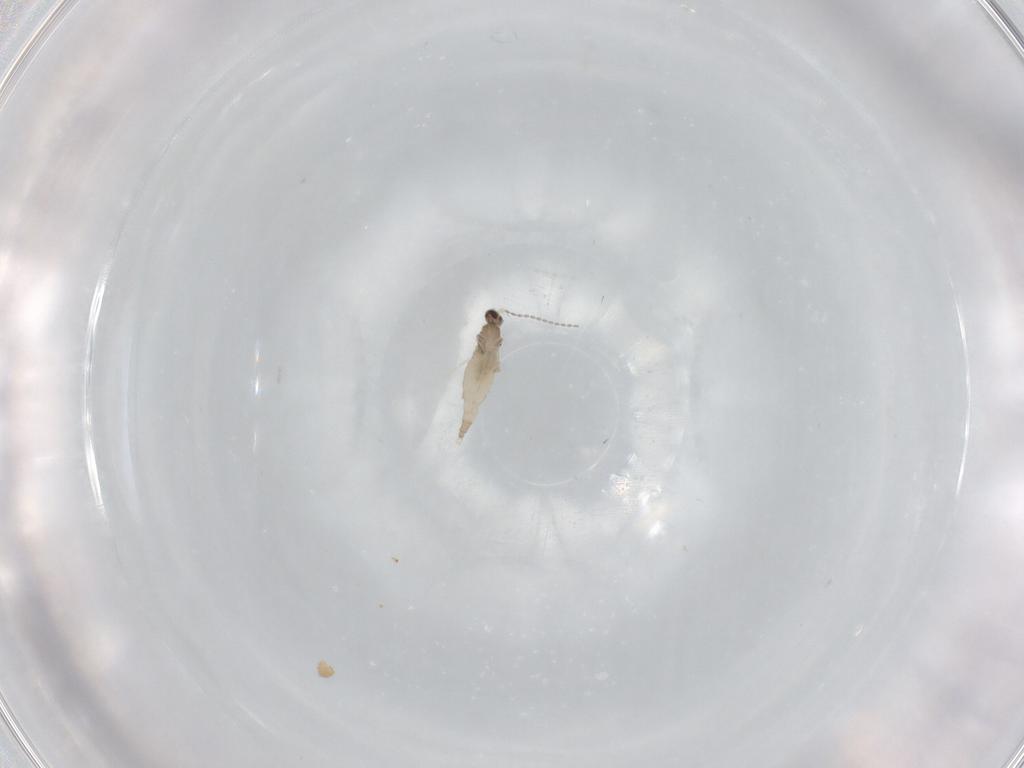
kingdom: Animalia
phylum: Arthropoda
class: Insecta
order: Diptera
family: Cecidomyiidae
